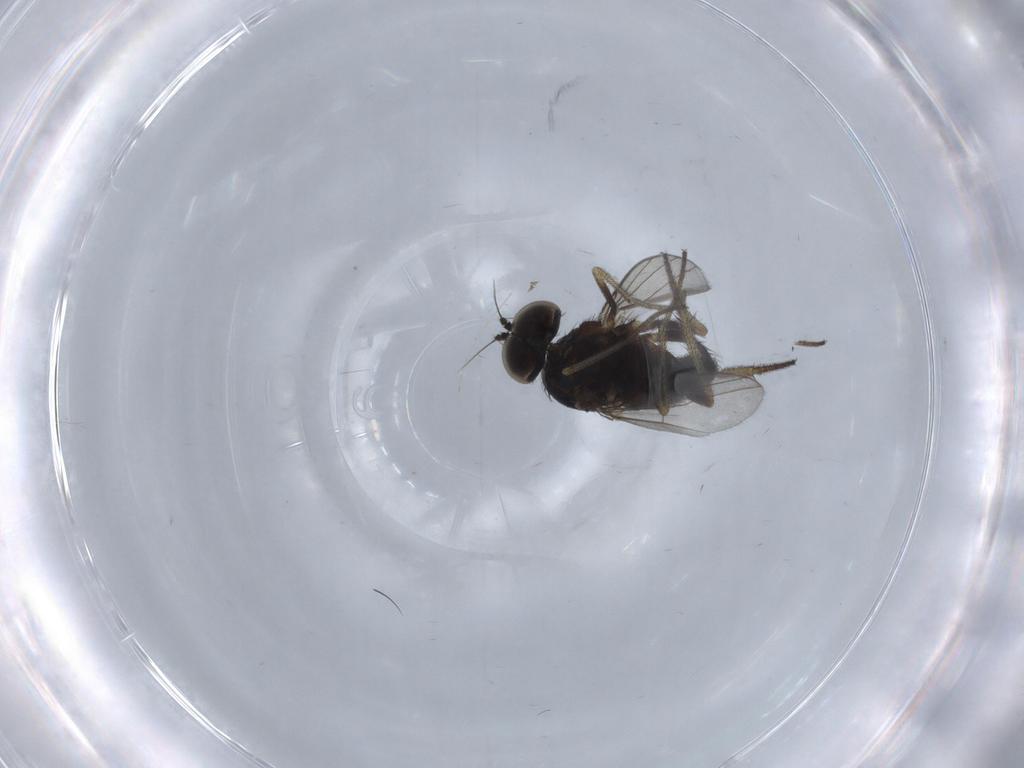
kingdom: Animalia
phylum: Arthropoda
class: Insecta
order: Diptera
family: Dolichopodidae
